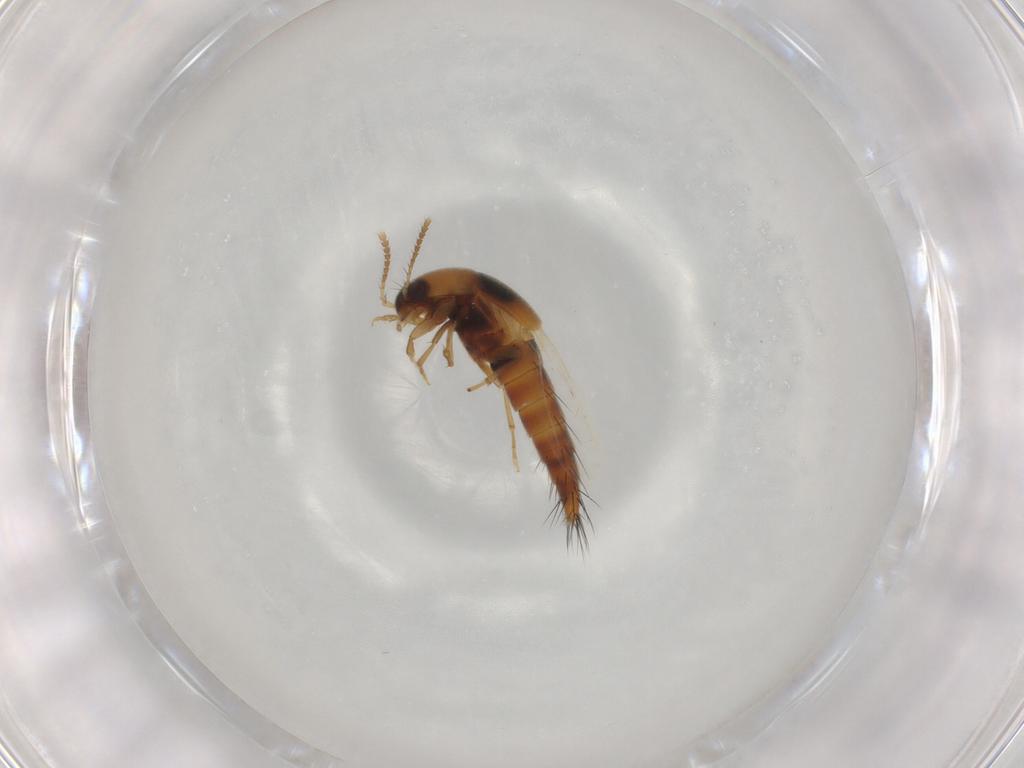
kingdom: Animalia
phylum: Arthropoda
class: Insecta
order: Coleoptera
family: Staphylinidae
